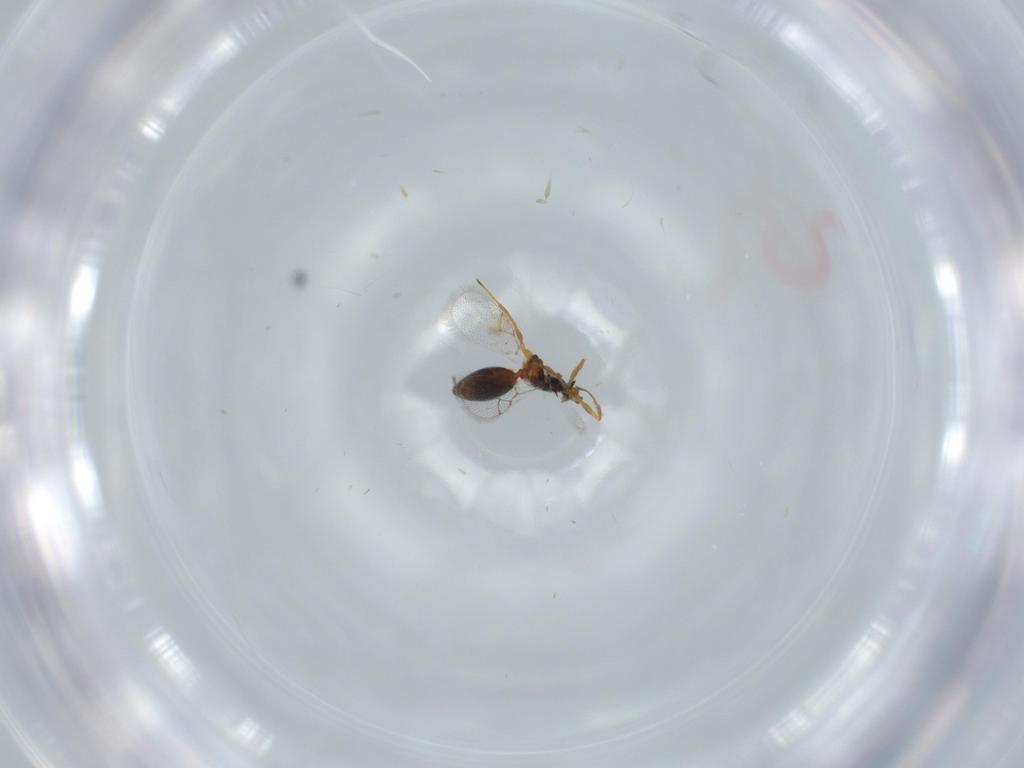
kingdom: Animalia
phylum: Arthropoda
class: Insecta
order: Hymenoptera
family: Figitidae
